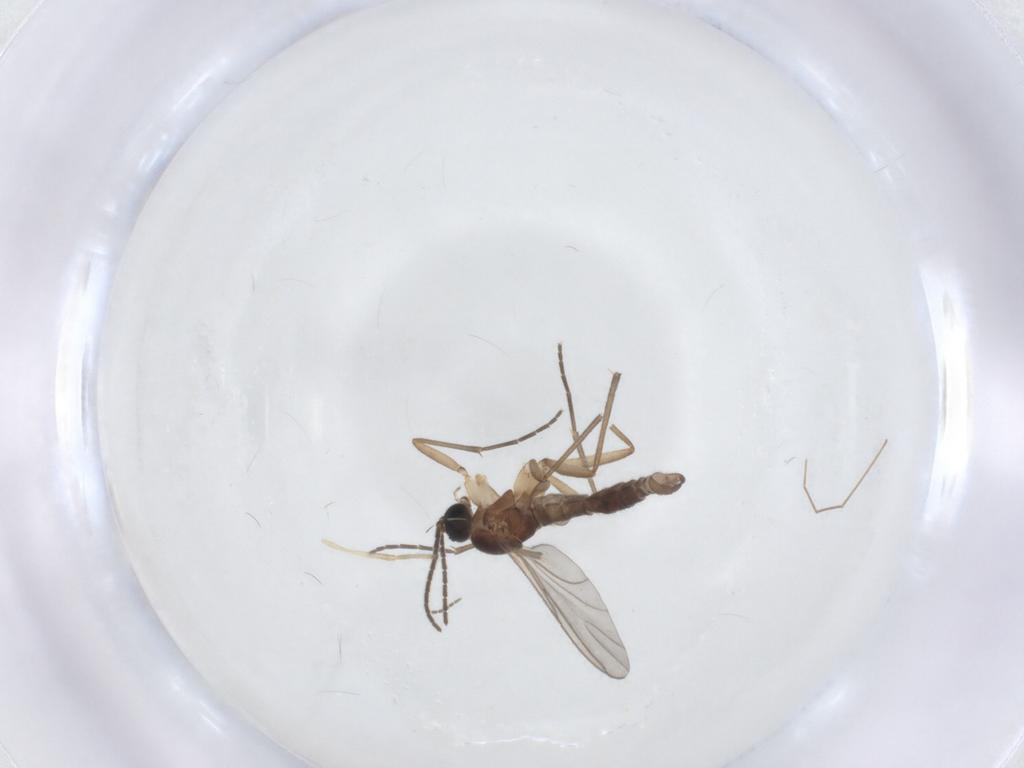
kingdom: Animalia
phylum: Arthropoda
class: Insecta
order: Diptera
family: Sciaridae
